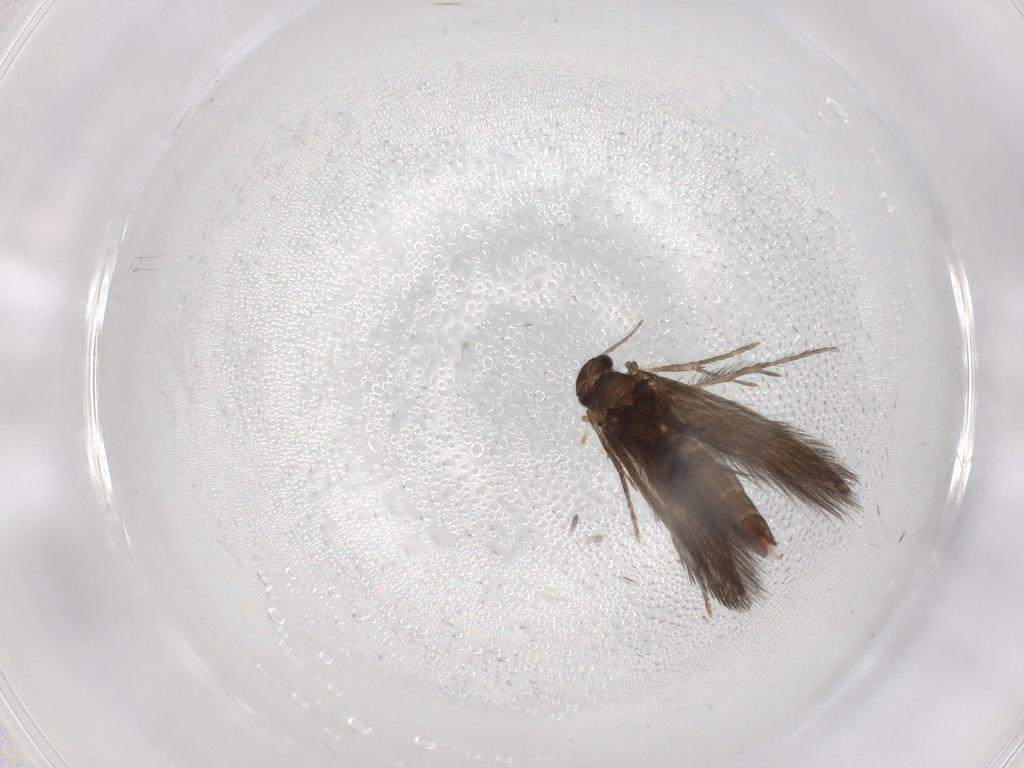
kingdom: Animalia
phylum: Arthropoda
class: Insecta
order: Trichoptera
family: Hydroptilidae
